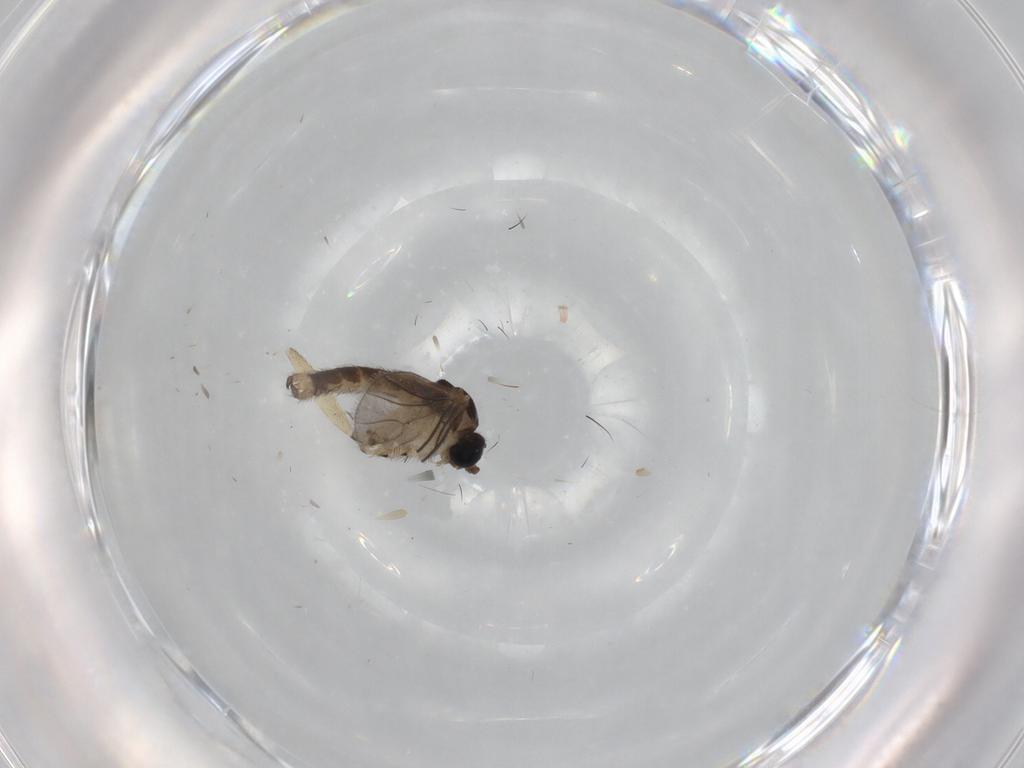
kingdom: Animalia
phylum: Arthropoda
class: Insecta
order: Diptera
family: Sciaridae
